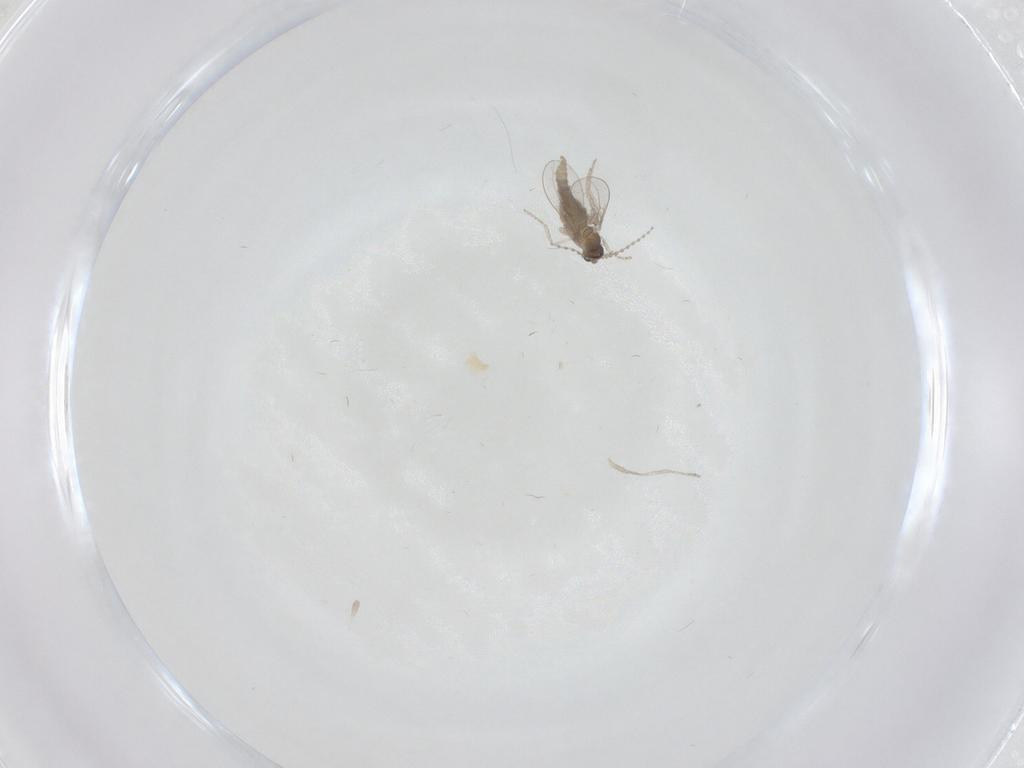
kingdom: Animalia
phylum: Arthropoda
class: Insecta
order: Diptera
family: Cecidomyiidae
